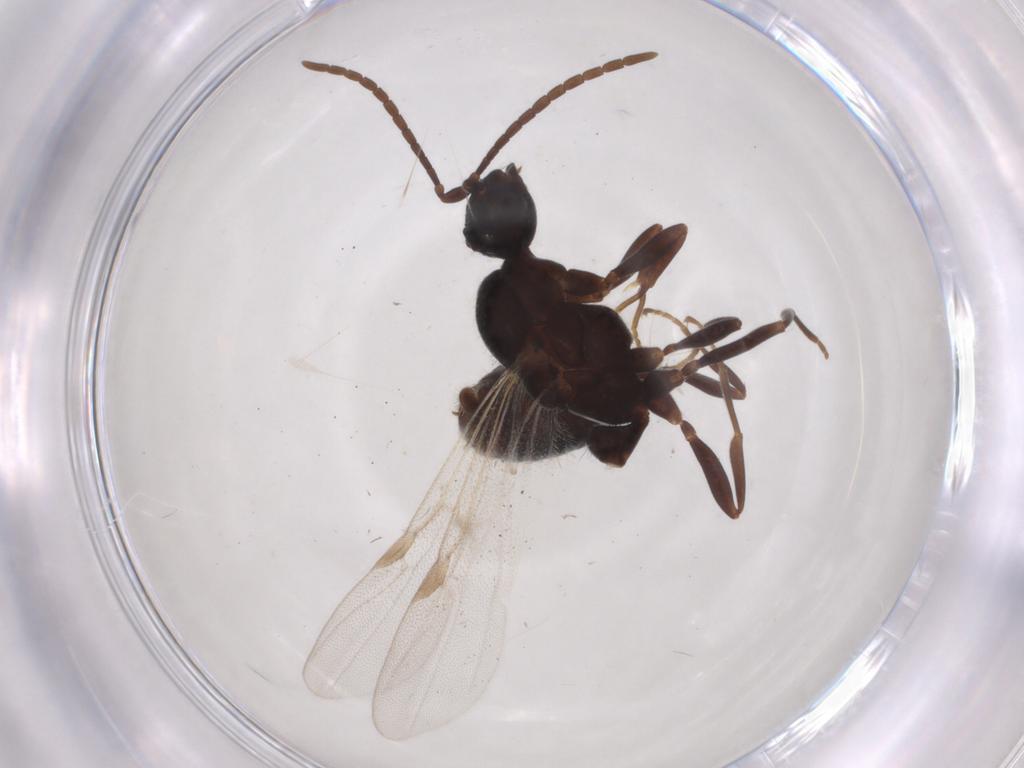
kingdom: Animalia
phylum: Arthropoda
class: Insecta
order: Hymenoptera
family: Formicidae
